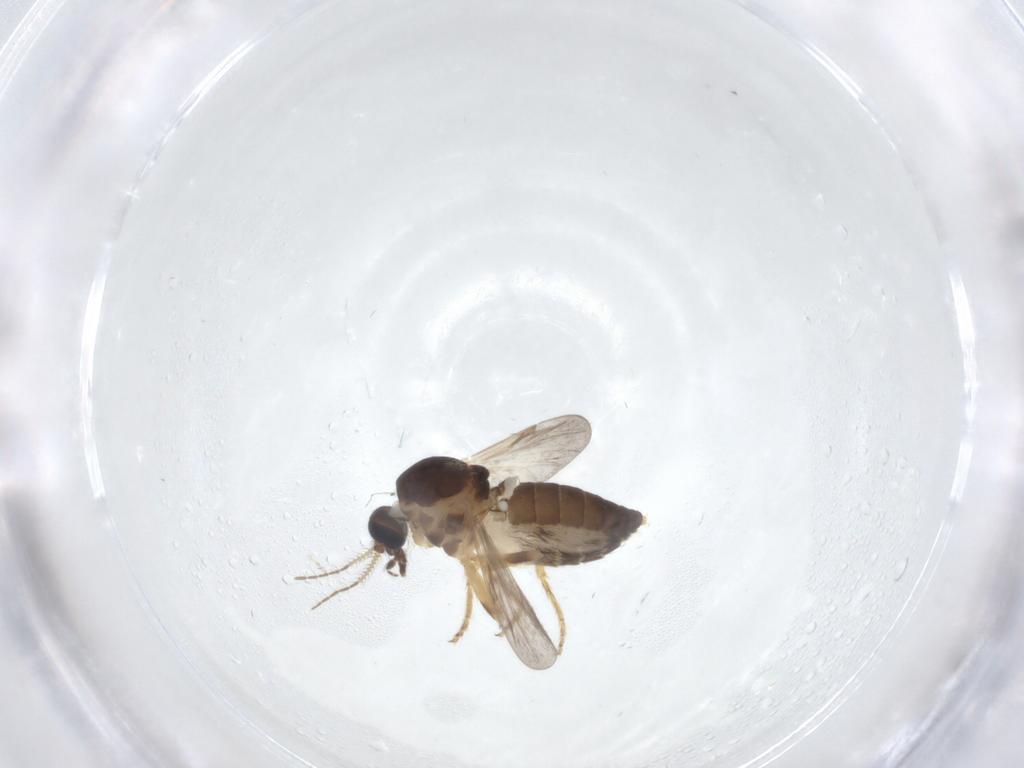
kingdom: Animalia
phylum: Arthropoda
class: Insecta
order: Diptera
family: Ceratopogonidae
